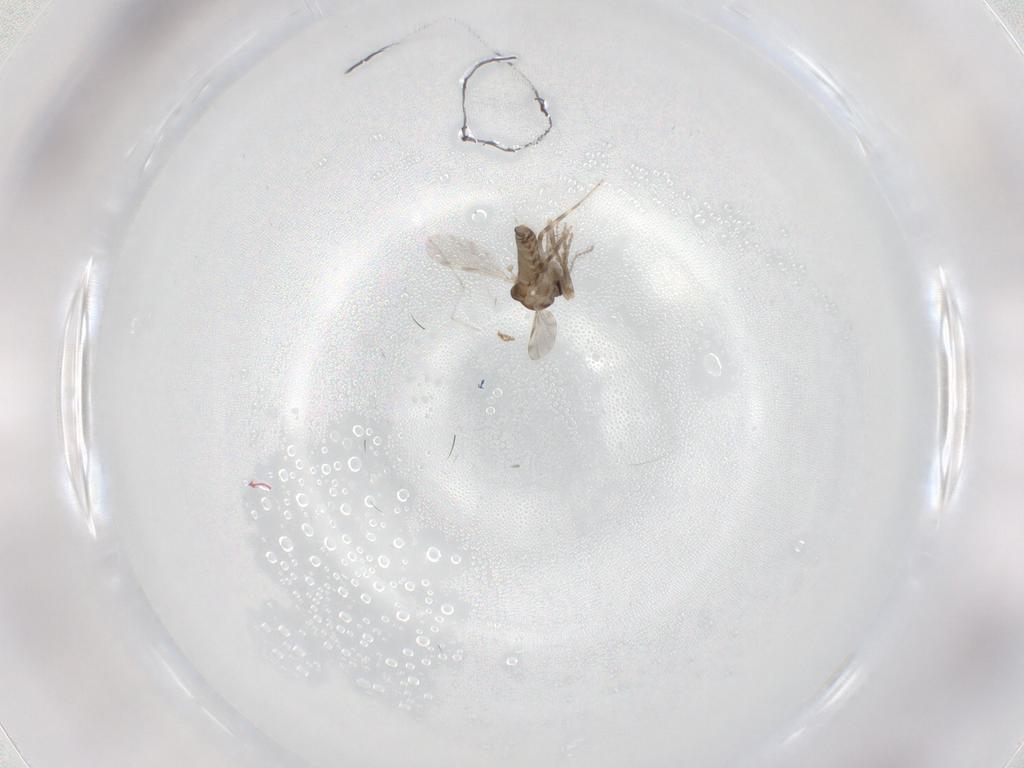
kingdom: Animalia
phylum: Arthropoda
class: Insecta
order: Diptera
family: Ceratopogonidae
